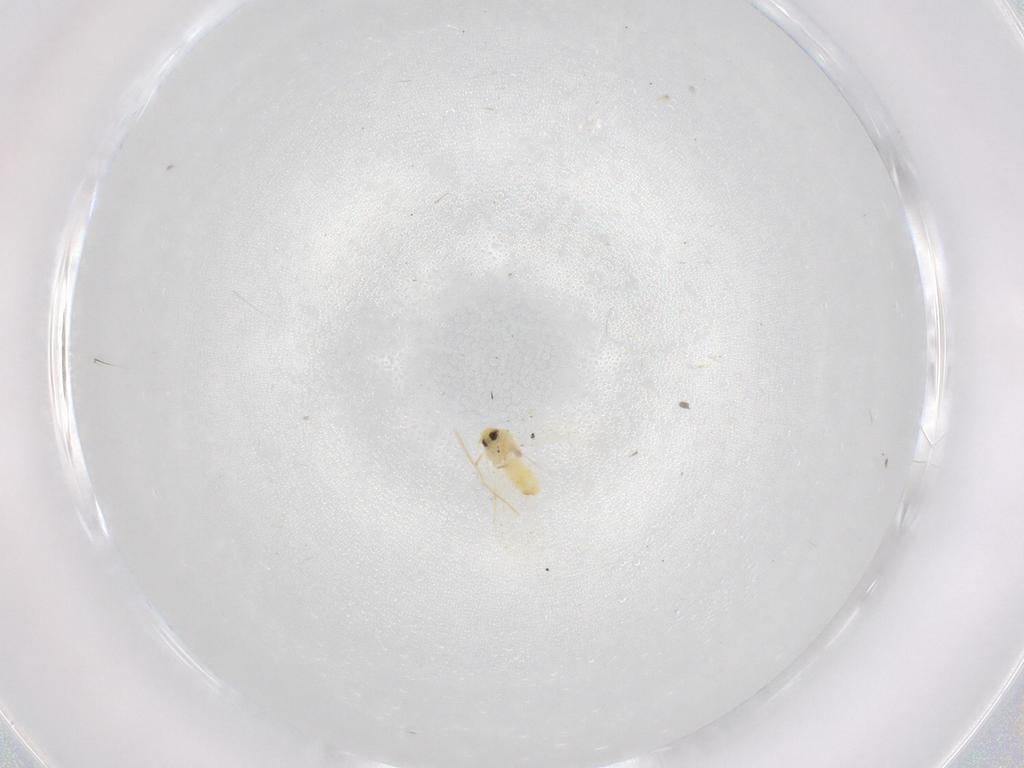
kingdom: Animalia
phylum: Arthropoda
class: Insecta
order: Hemiptera
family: Aleyrodidae
